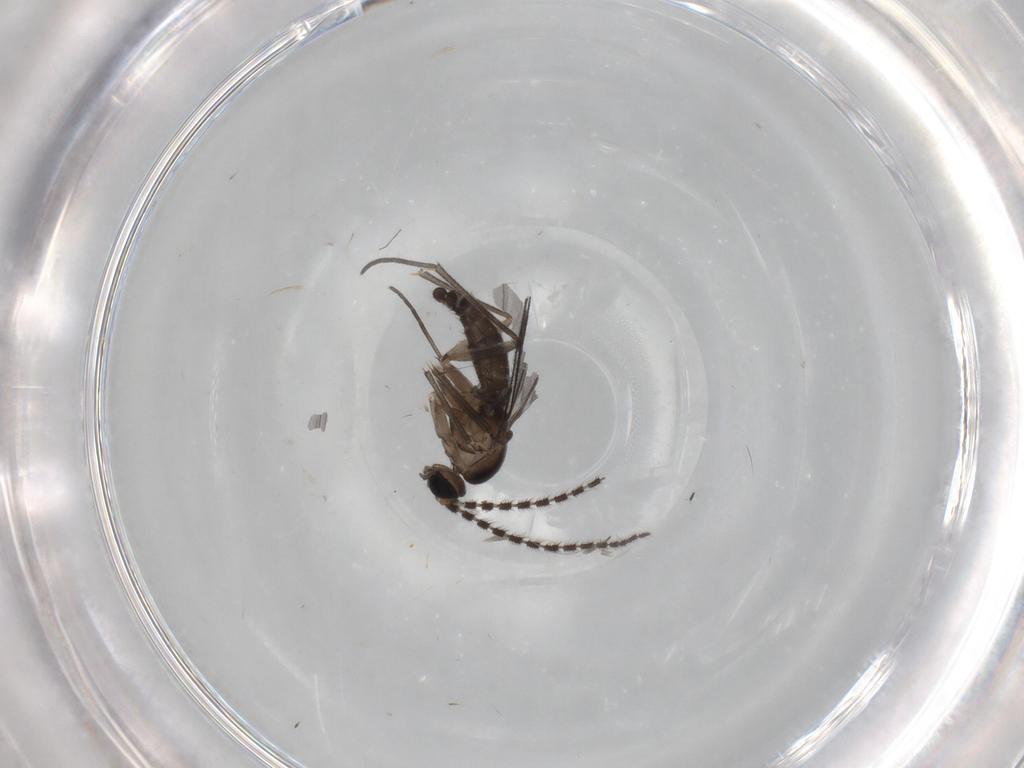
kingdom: Animalia
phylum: Arthropoda
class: Insecta
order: Diptera
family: Sciaridae
